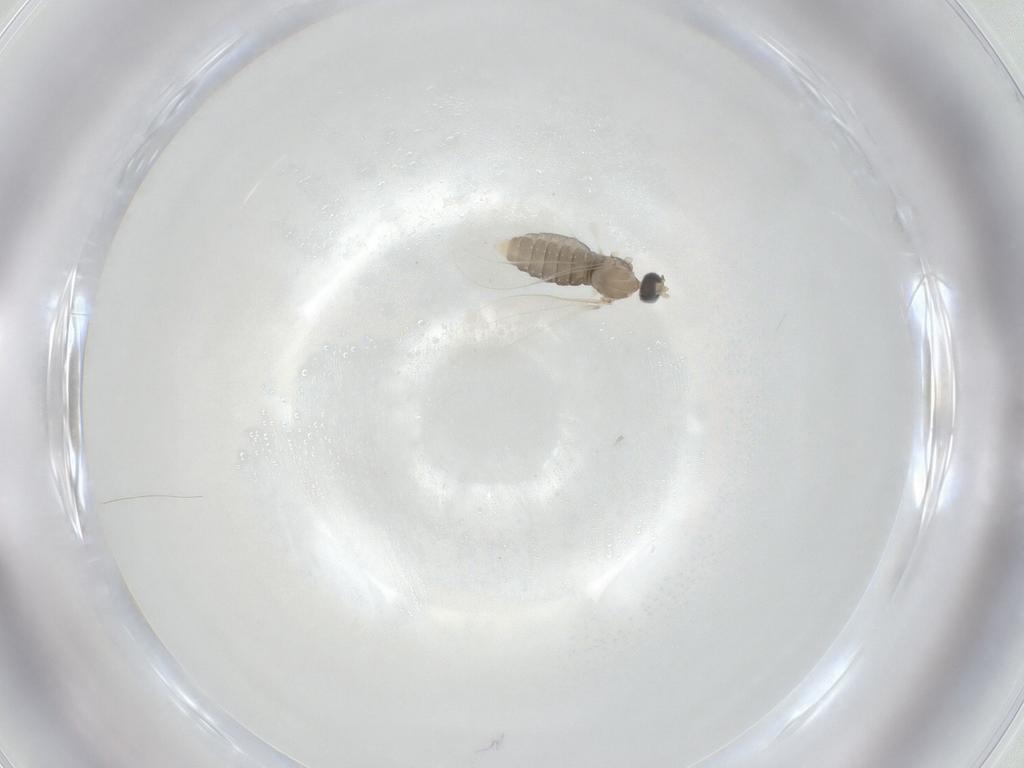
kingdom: Animalia
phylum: Arthropoda
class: Insecta
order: Diptera
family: Cecidomyiidae
